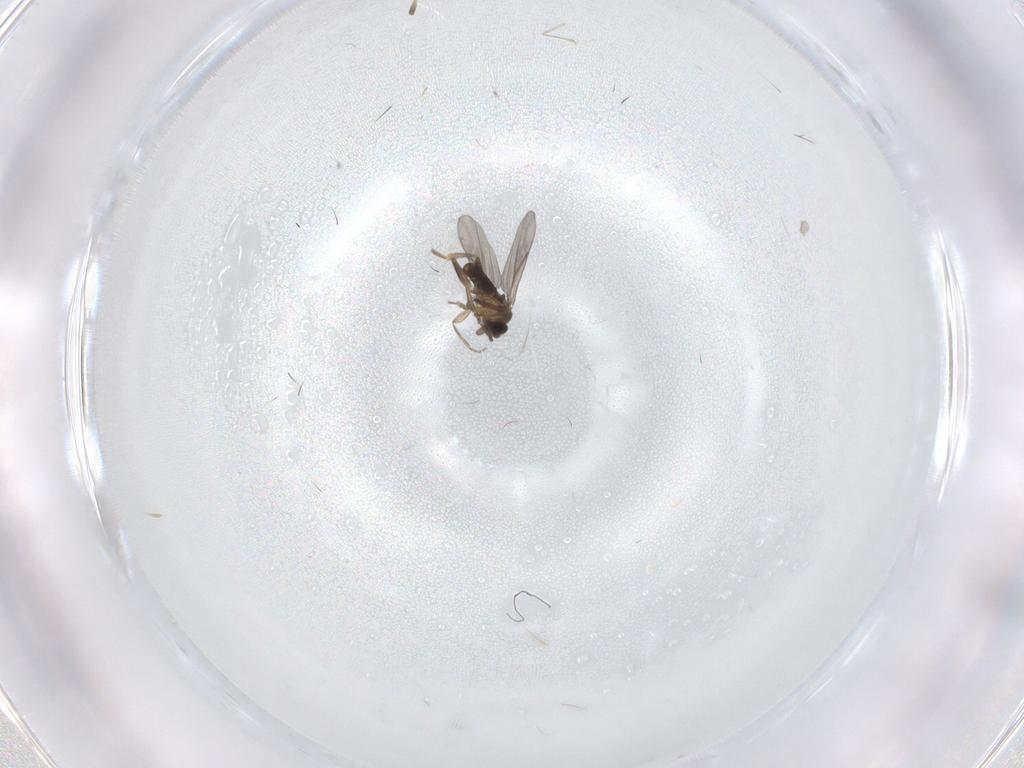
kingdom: Animalia
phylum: Arthropoda
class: Insecta
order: Diptera
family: Cecidomyiidae
